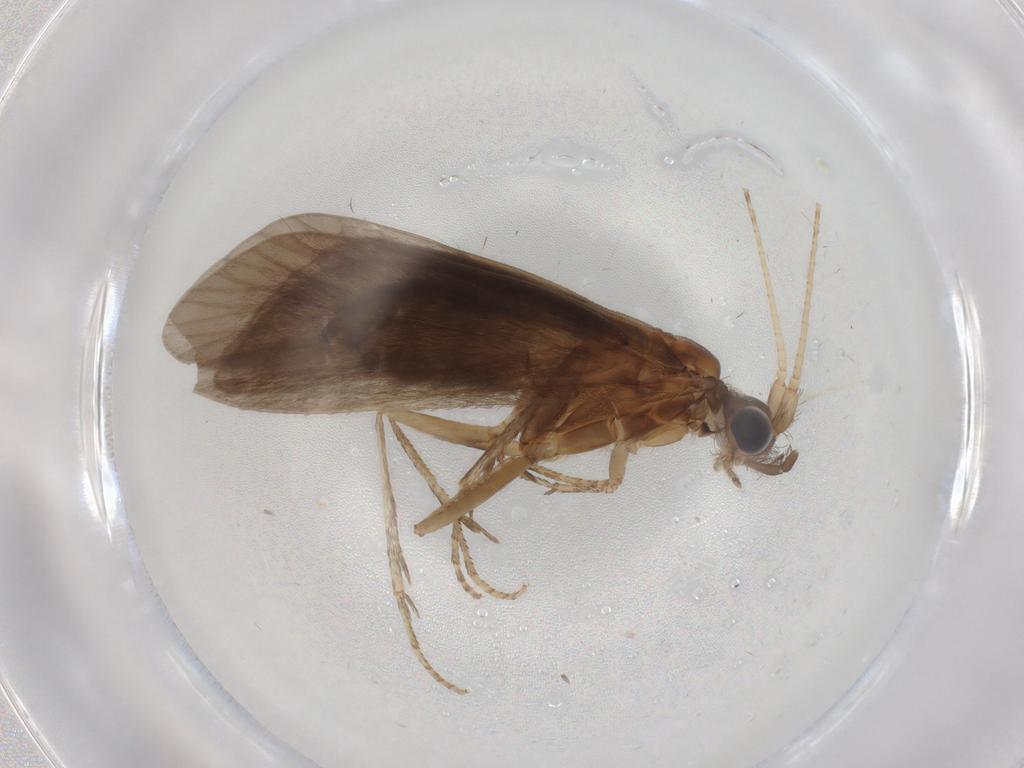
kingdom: Animalia
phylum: Arthropoda
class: Insecta
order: Trichoptera
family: Helicopsychidae
